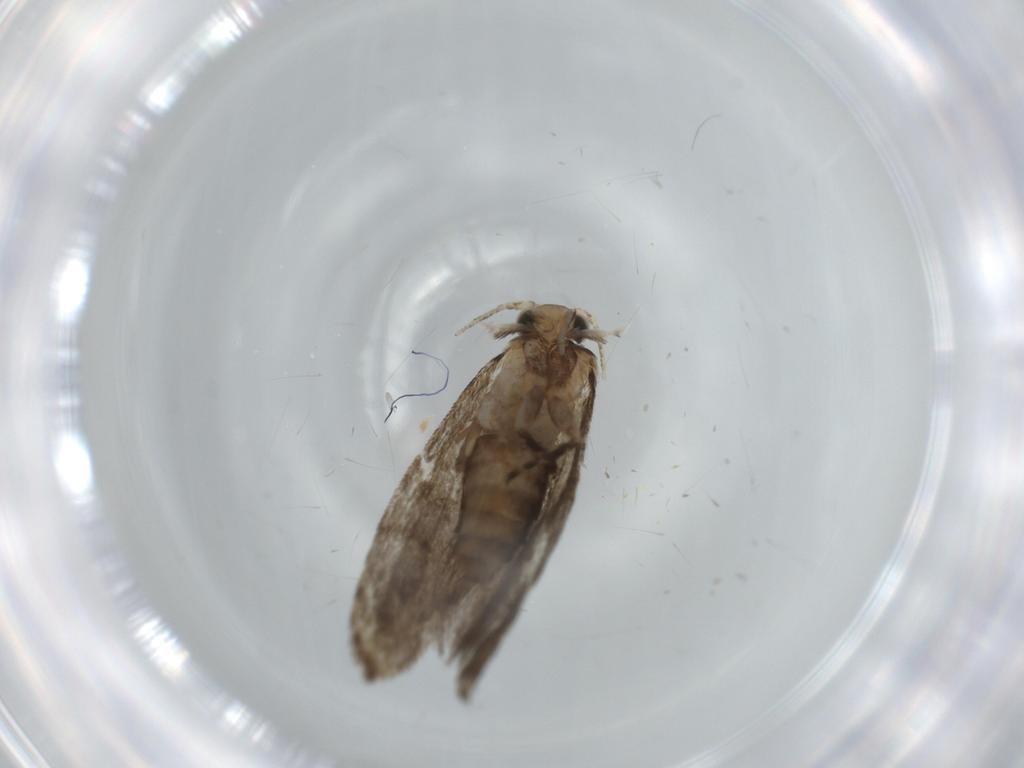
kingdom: Animalia
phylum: Arthropoda
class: Insecta
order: Lepidoptera
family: Tineidae
